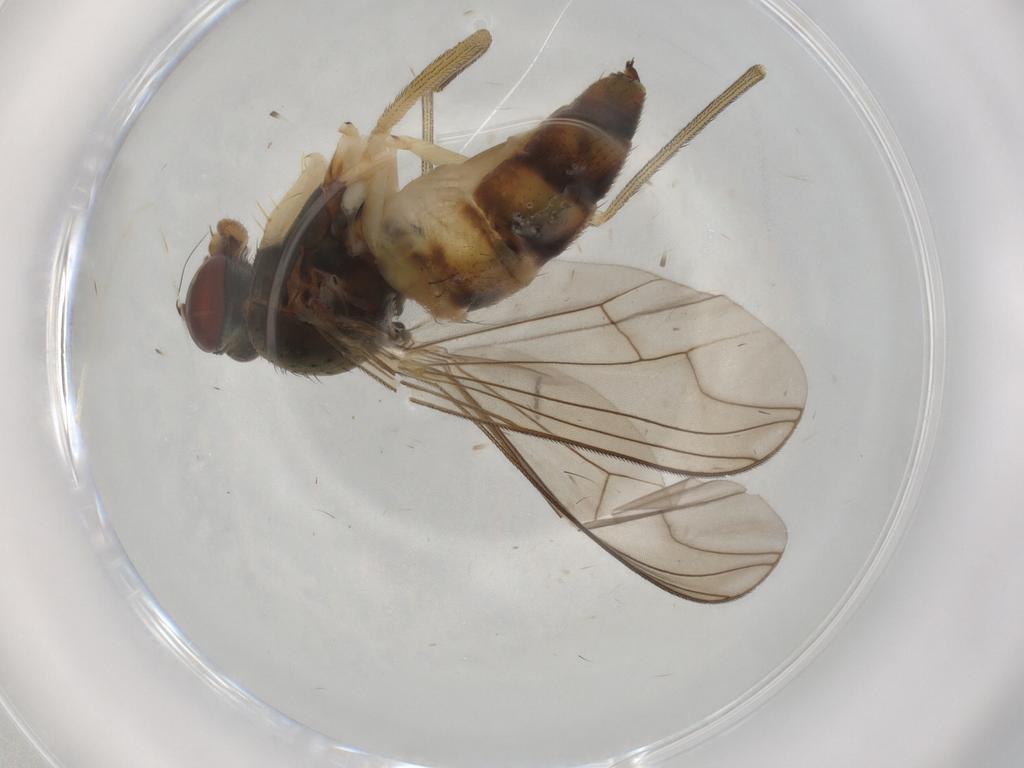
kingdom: Animalia
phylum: Arthropoda
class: Insecta
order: Diptera
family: Dolichopodidae
